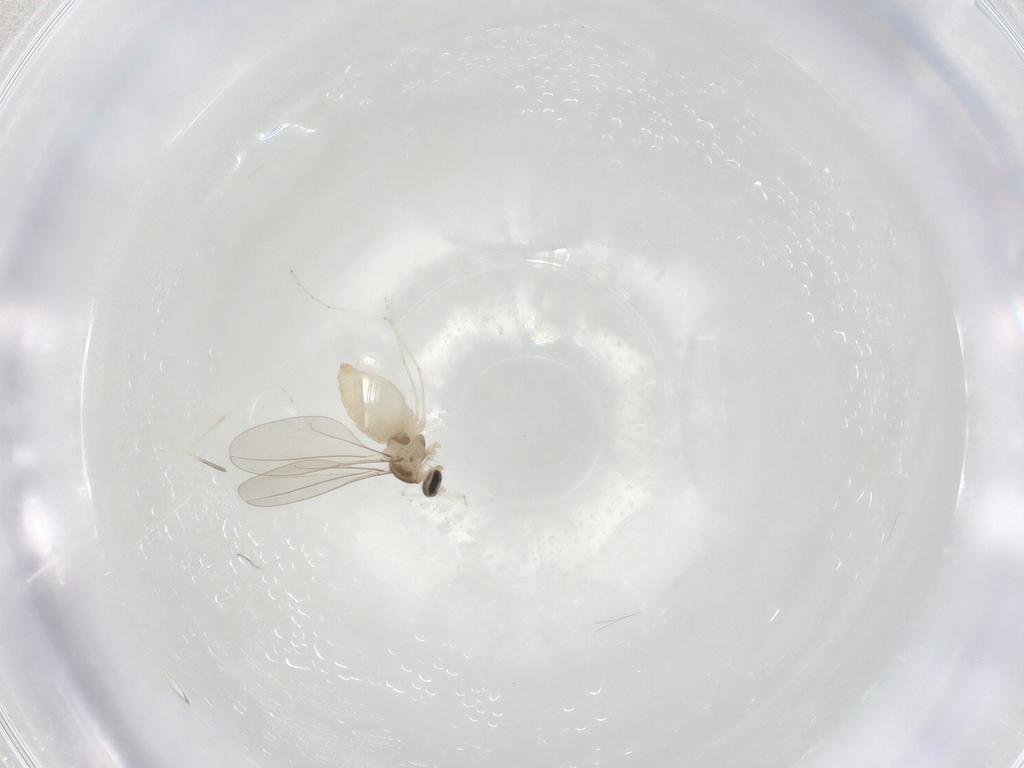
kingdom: Animalia
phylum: Arthropoda
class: Insecta
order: Diptera
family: Cecidomyiidae
